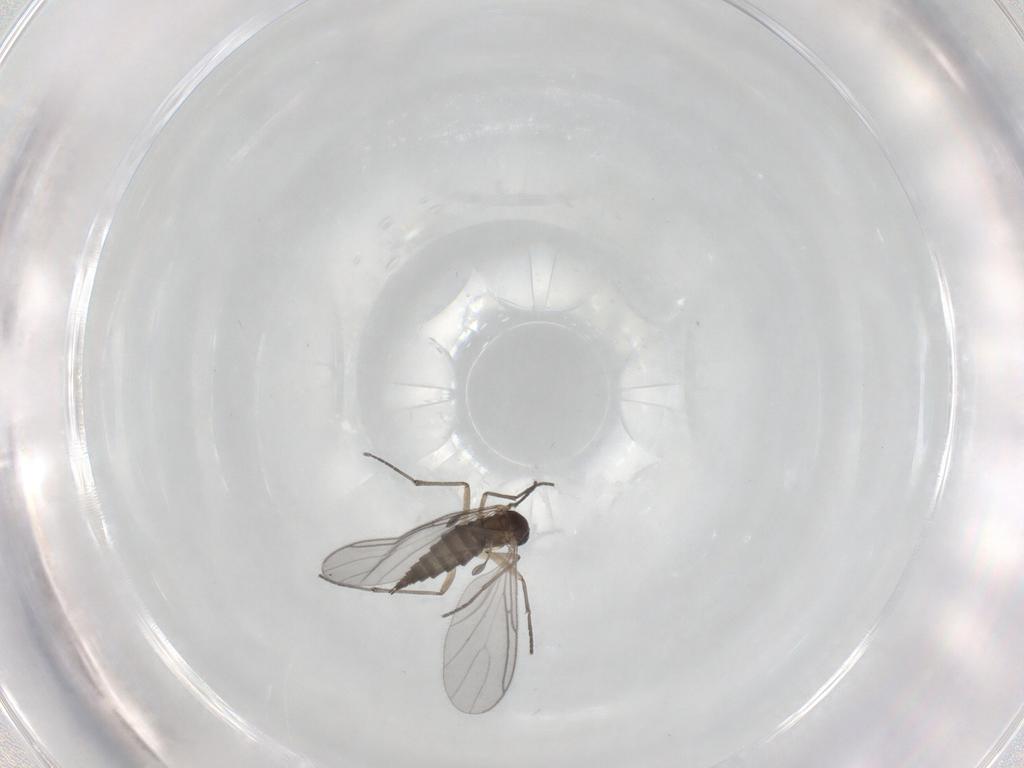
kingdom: Animalia
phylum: Arthropoda
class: Insecta
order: Diptera
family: Sciaridae
